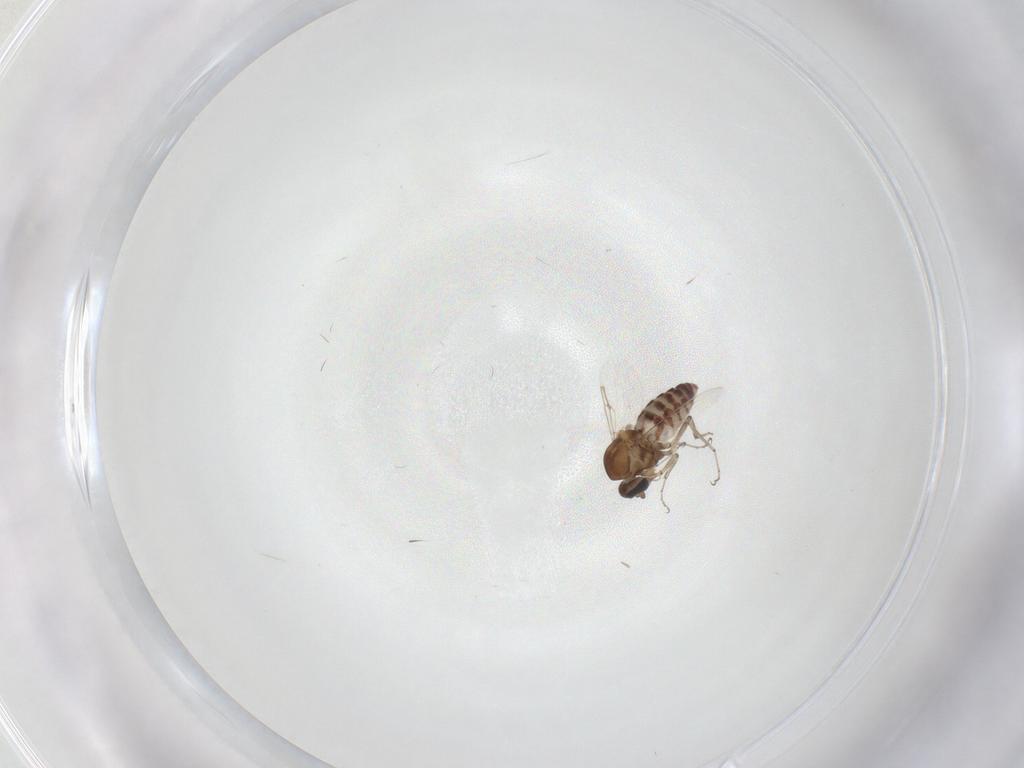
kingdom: Animalia
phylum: Arthropoda
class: Insecta
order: Diptera
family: Ceratopogonidae
